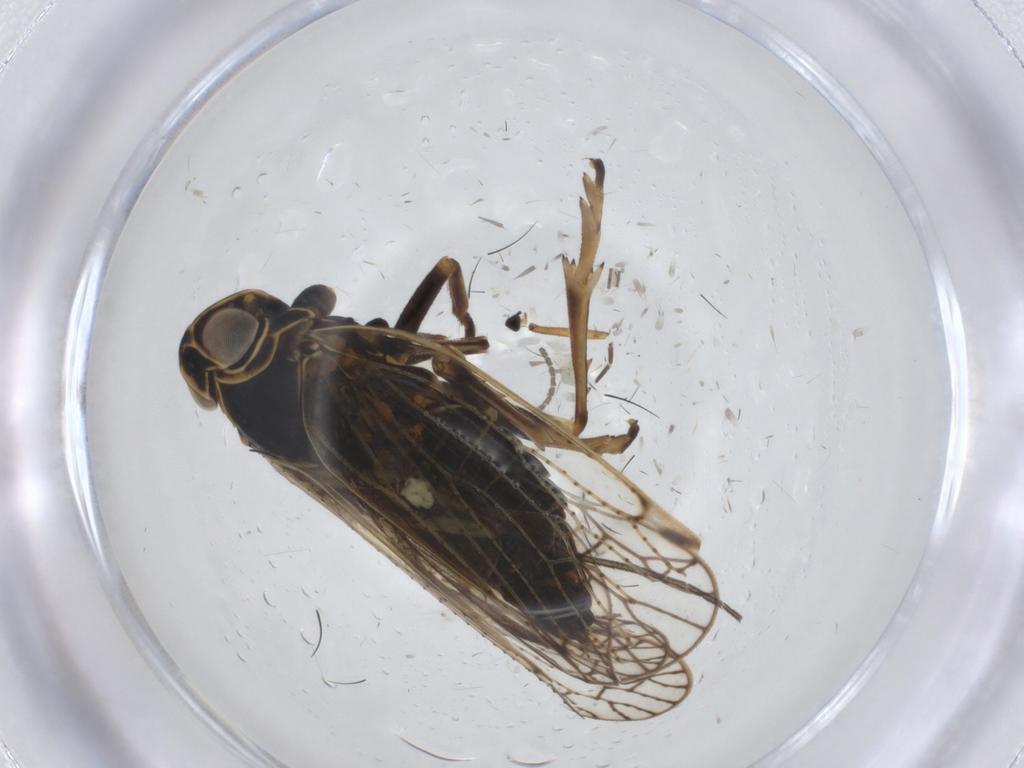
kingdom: Animalia
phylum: Arthropoda
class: Insecta
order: Hemiptera
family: Cixiidae
